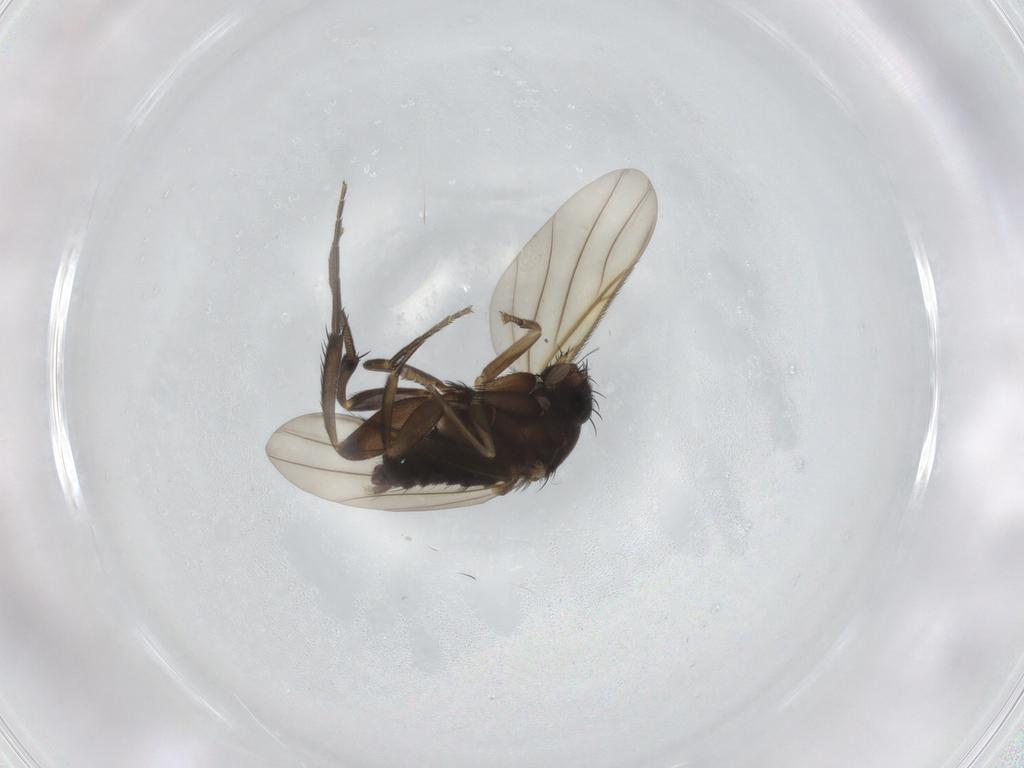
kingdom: Animalia
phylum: Arthropoda
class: Insecta
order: Diptera
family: Phoridae
